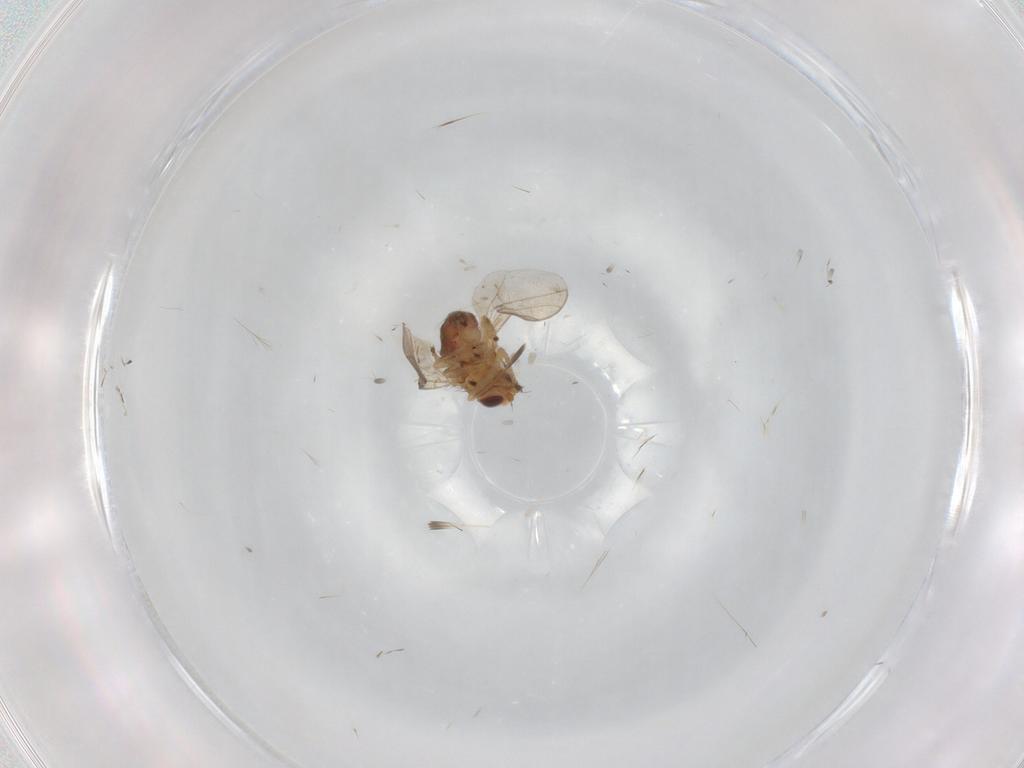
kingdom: Animalia
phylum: Arthropoda
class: Insecta
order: Diptera
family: Chloropidae
